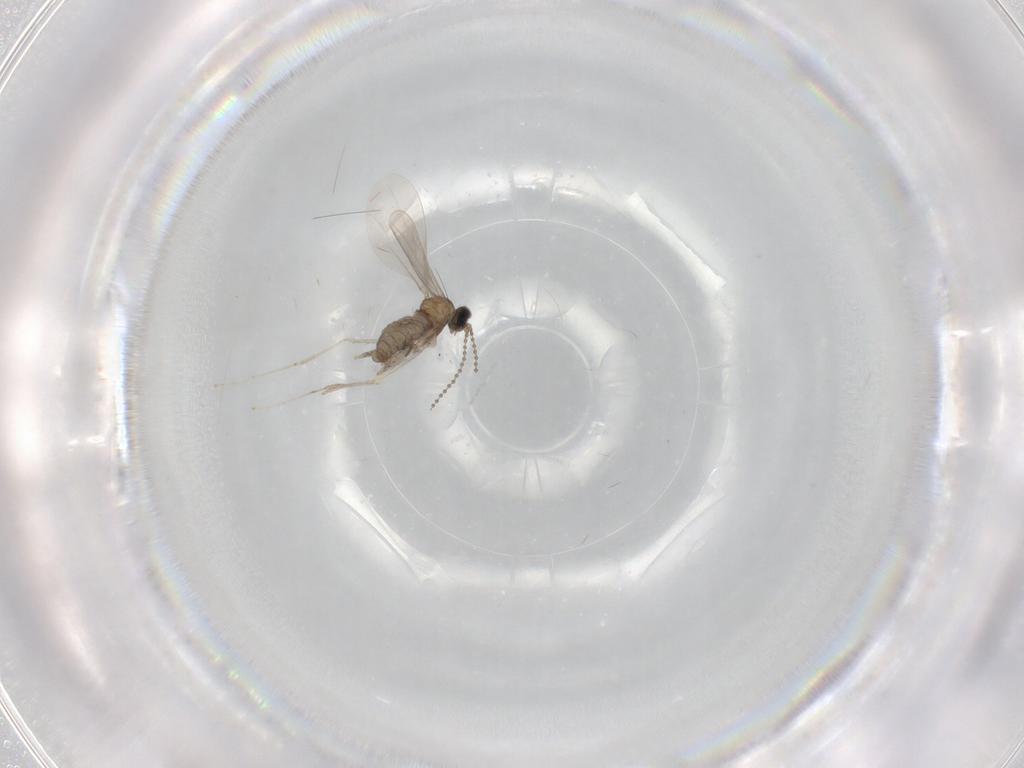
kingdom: Animalia
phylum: Arthropoda
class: Insecta
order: Diptera
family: Cecidomyiidae
